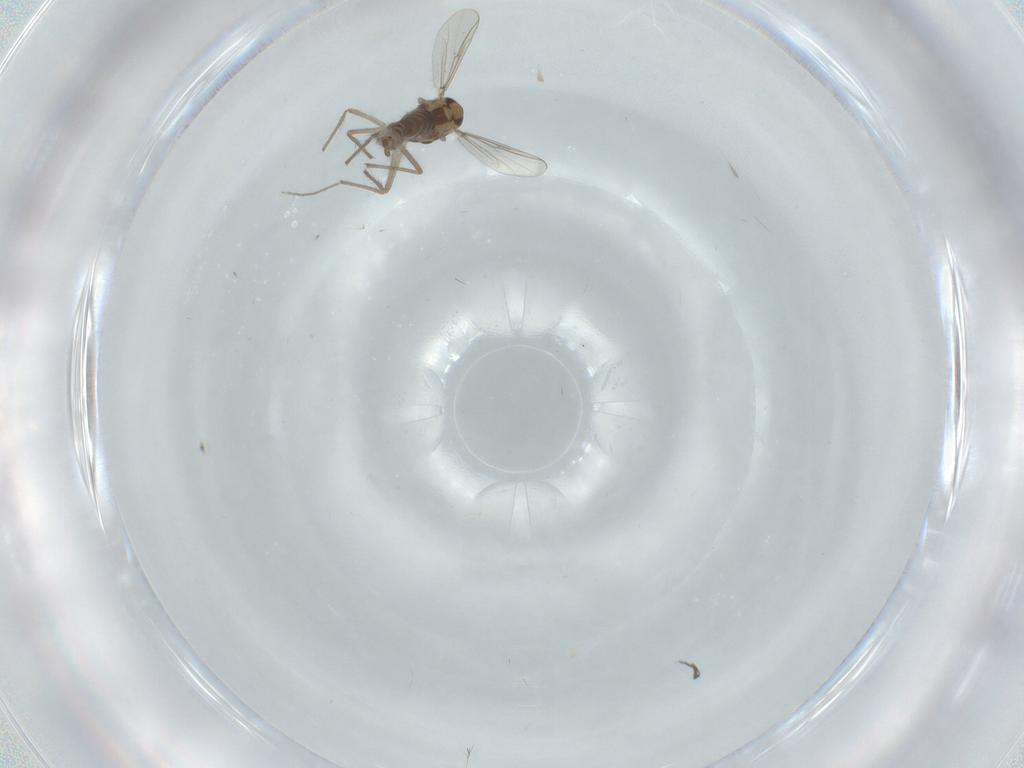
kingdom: Animalia
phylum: Arthropoda
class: Insecta
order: Diptera
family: Chironomidae
